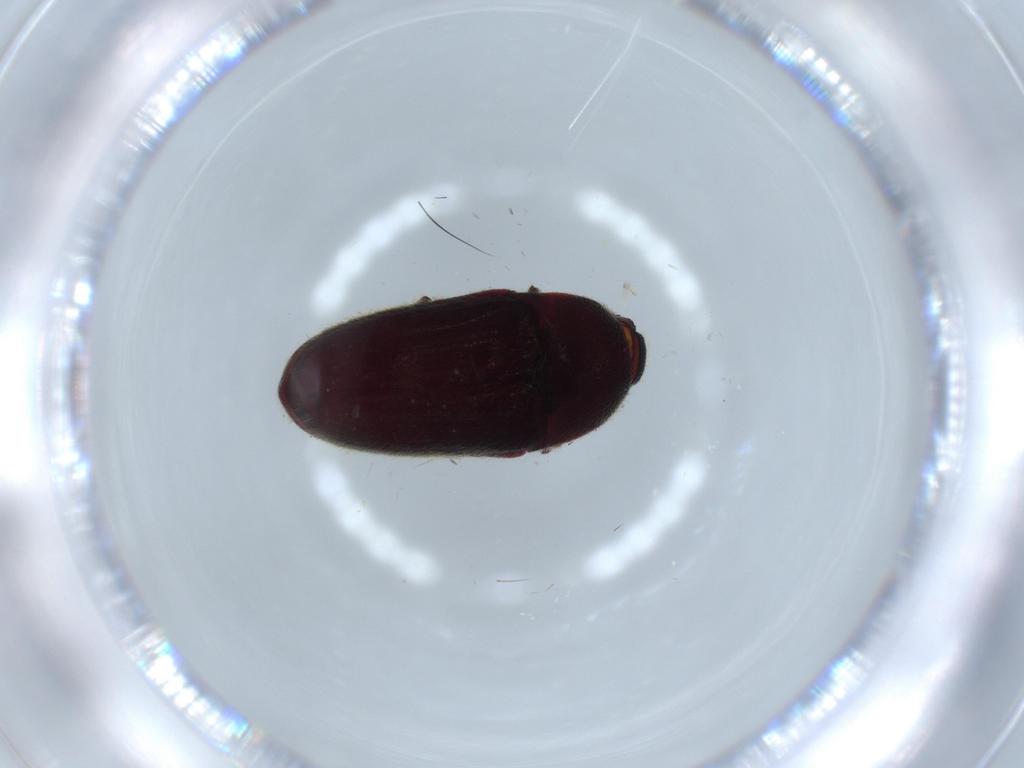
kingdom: Animalia
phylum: Arthropoda
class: Insecta
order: Coleoptera
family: Throscidae
